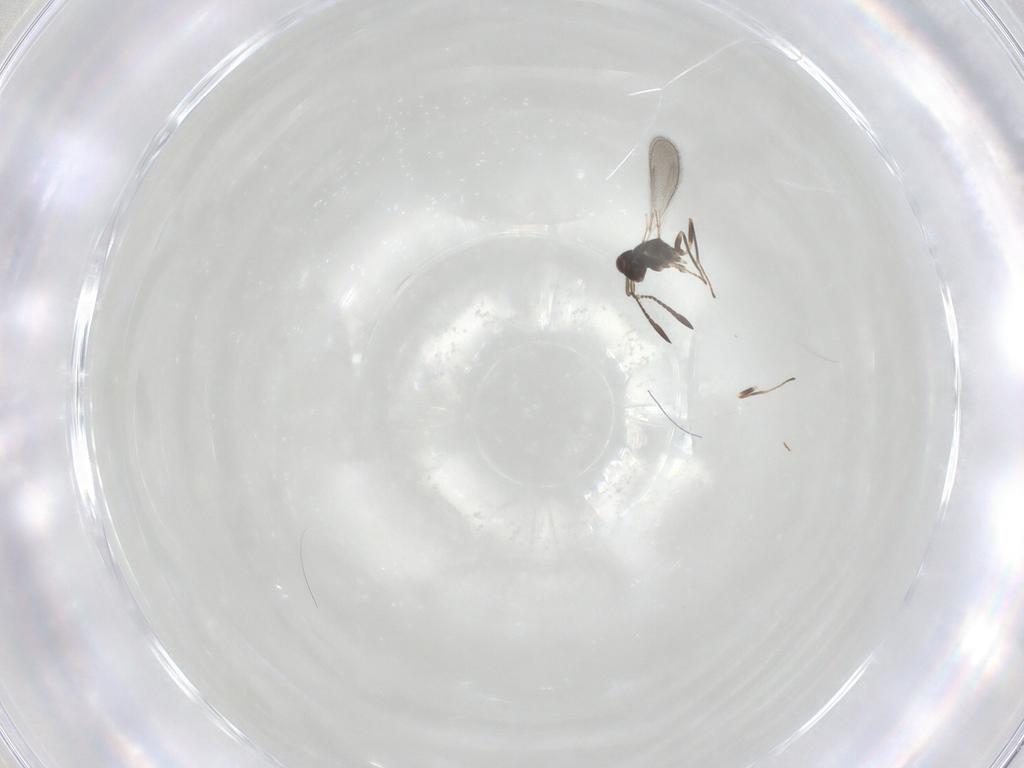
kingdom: Animalia
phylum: Arthropoda
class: Insecta
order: Hymenoptera
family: Mymaridae
